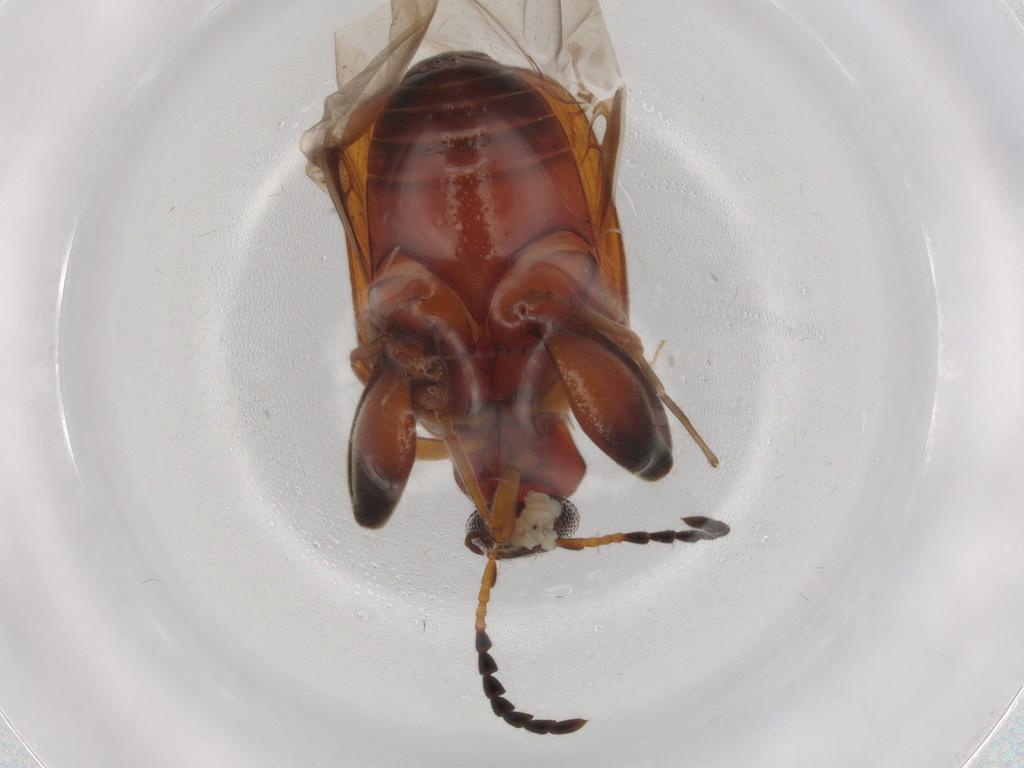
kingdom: Animalia
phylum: Arthropoda
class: Insecta
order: Coleoptera
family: Chrysomelidae
